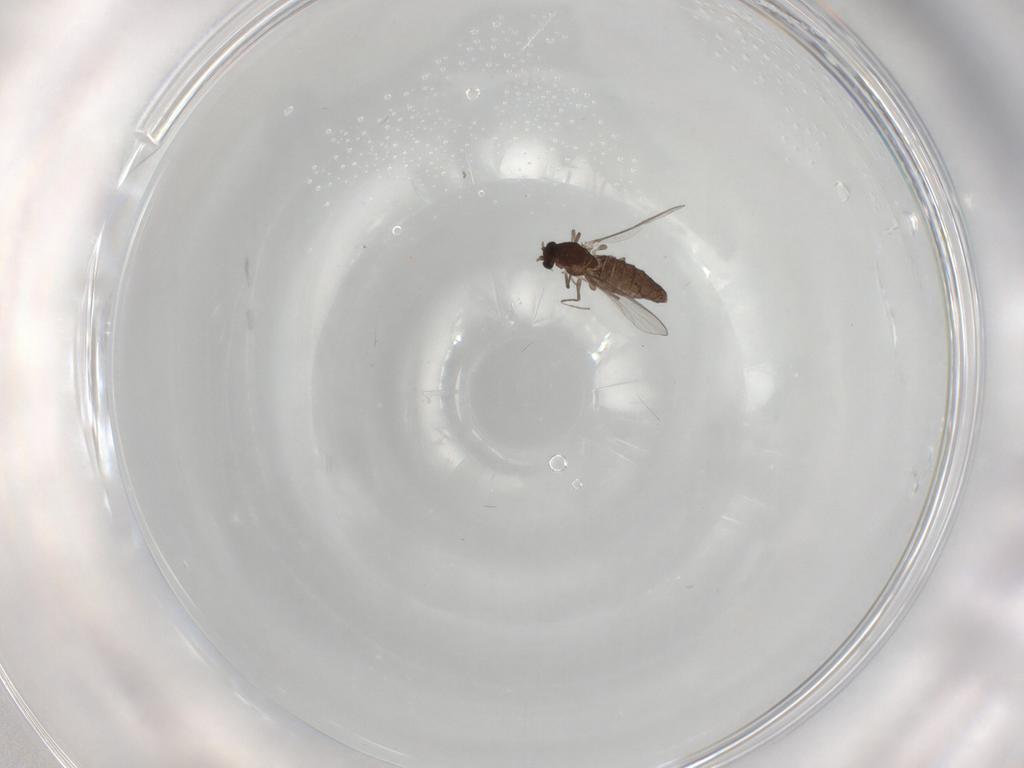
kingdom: Animalia
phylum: Arthropoda
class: Insecta
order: Diptera
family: Chironomidae
